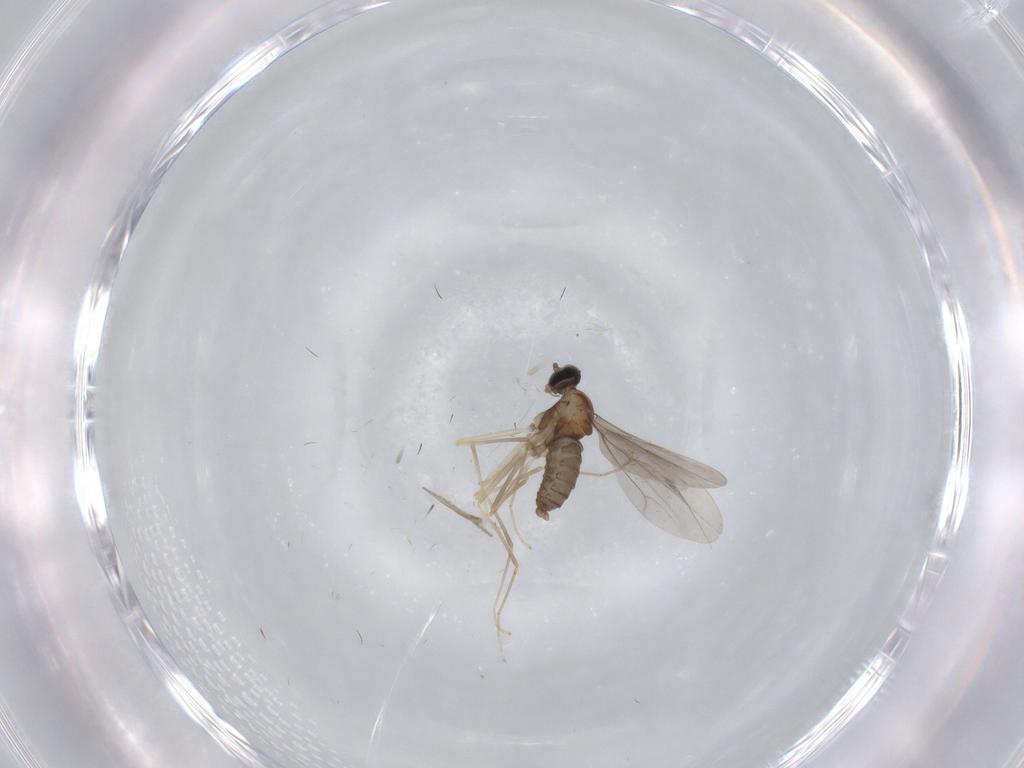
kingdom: Animalia
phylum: Arthropoda
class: Insecta
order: Diptera
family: Cecidomyiidae
